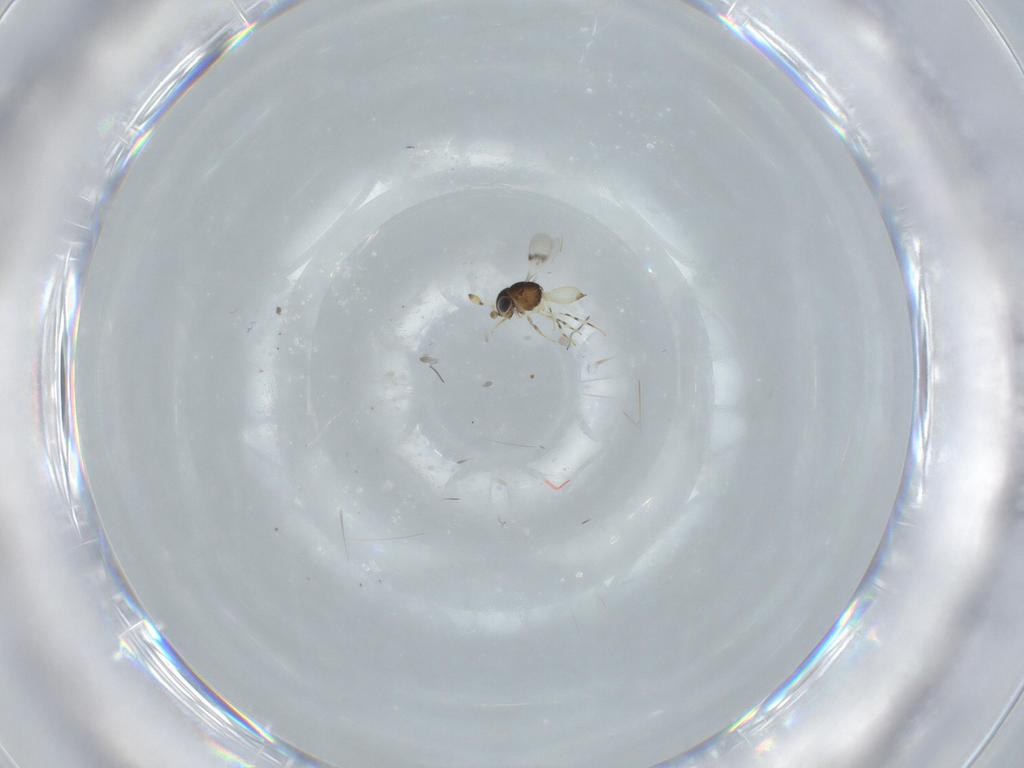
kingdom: Animalia
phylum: Arthropoda
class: Insecta
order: Hymenoptera
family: Scelionidae
